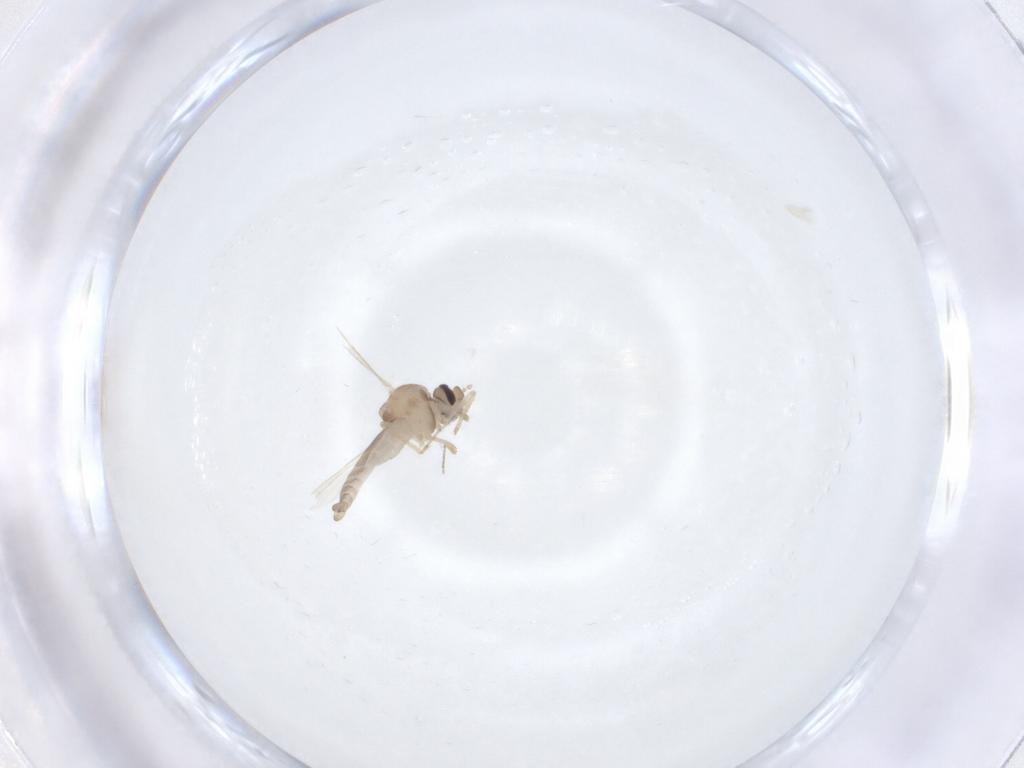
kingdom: Animalia
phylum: Arthropoda
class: Insecta
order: Diptera
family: Ceratopogonidae
